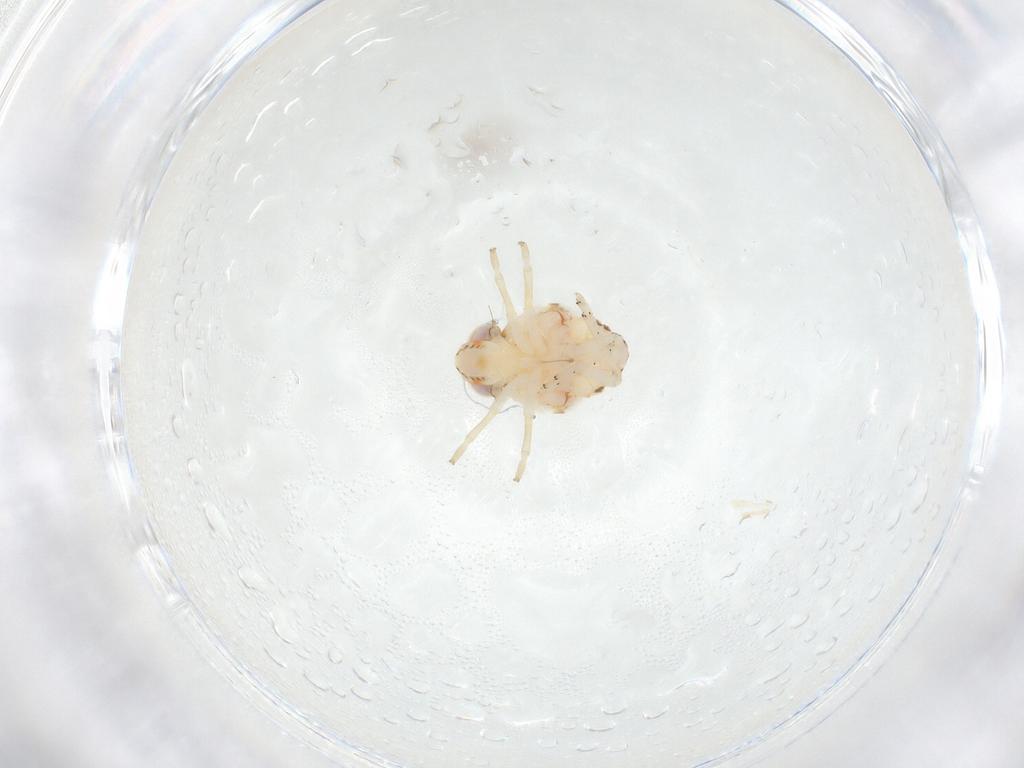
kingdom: Animalia
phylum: Arthropoda
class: Insecta
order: Hemiptera
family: Nogodinidae
